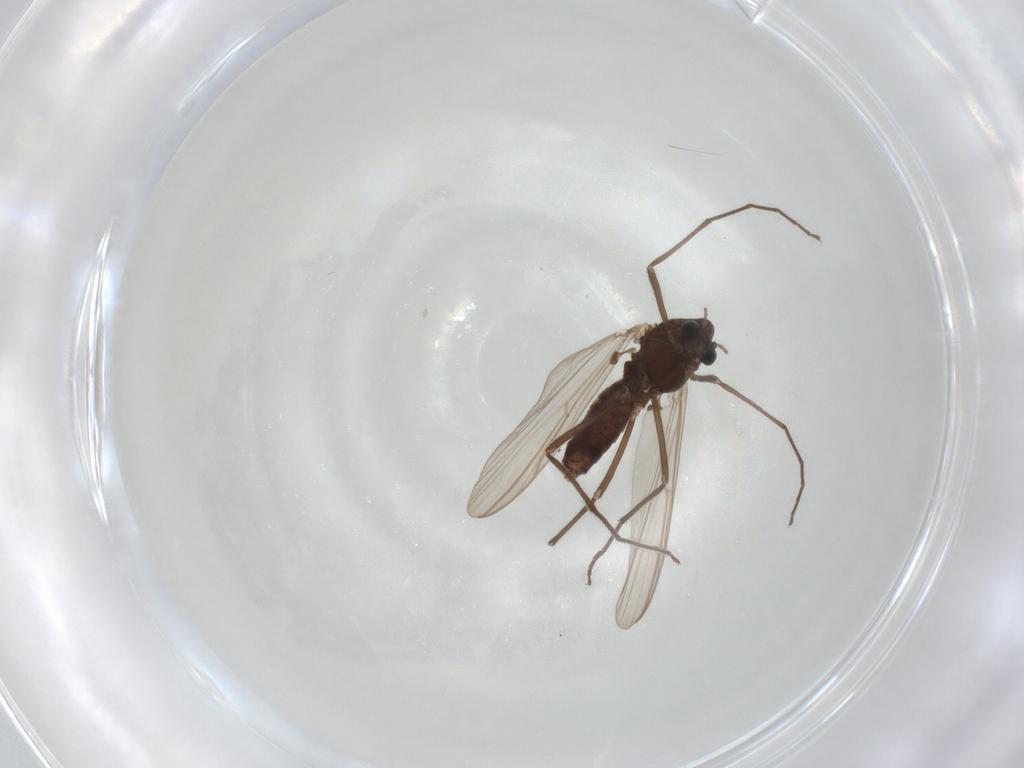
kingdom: Animalia
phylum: Arthropoda
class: Insecta
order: Diptera
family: Chironomidae
